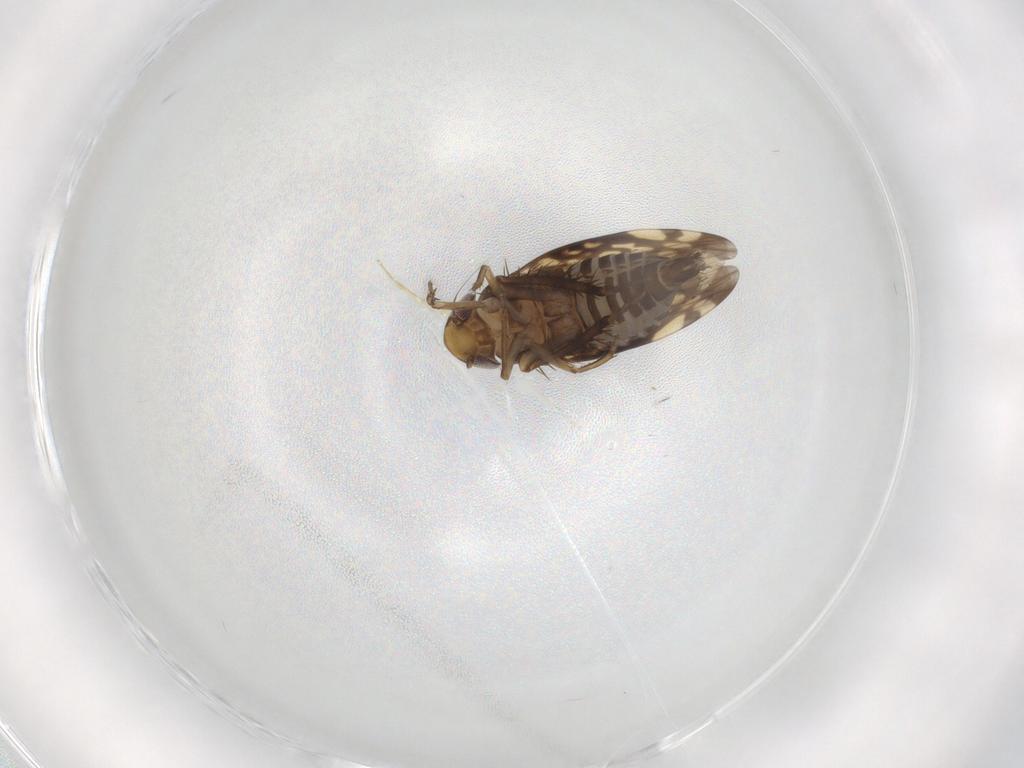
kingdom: Animalia
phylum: Arthropoda
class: Insecta
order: Hemiptera
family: Cicadellidae
